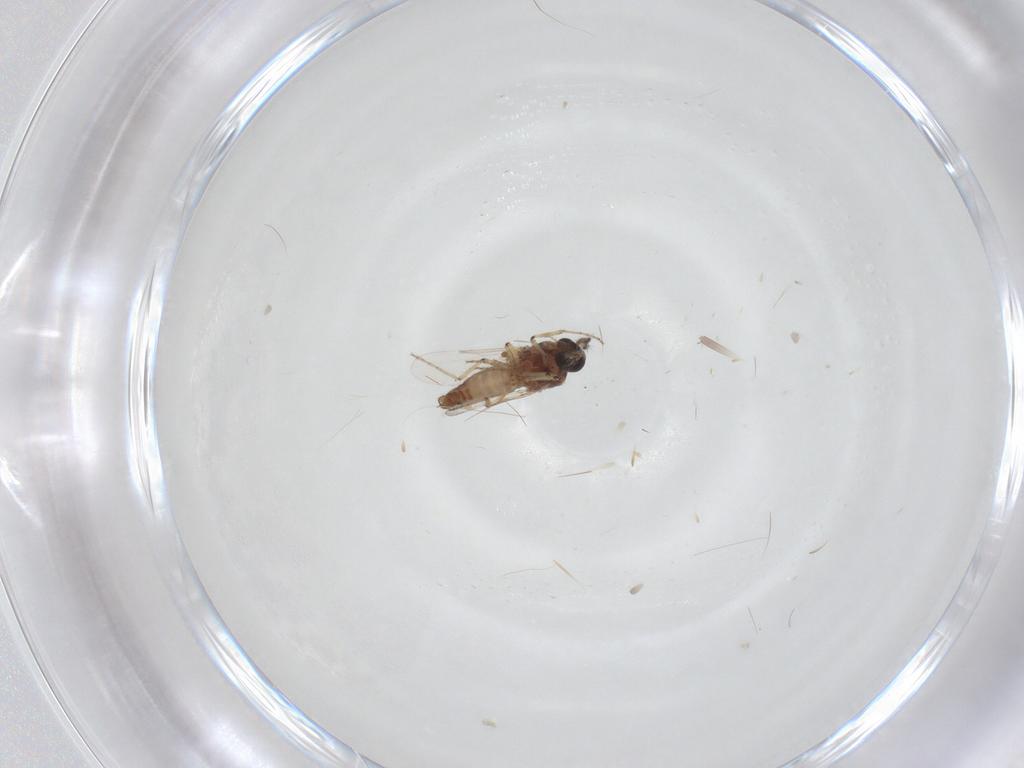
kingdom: Animalia
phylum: Arthropoda
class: Insecta
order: Diptera
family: Ceratopogonidae
